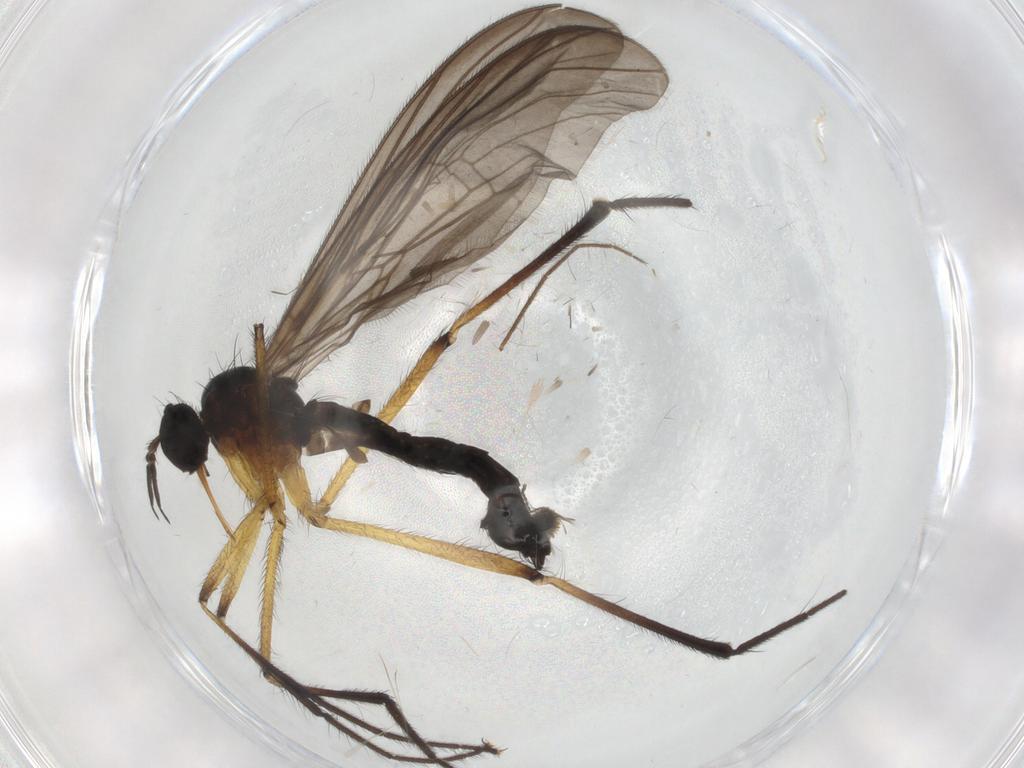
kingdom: Animalia
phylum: Arthropoda
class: Insecta
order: Diptera
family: Empididae
